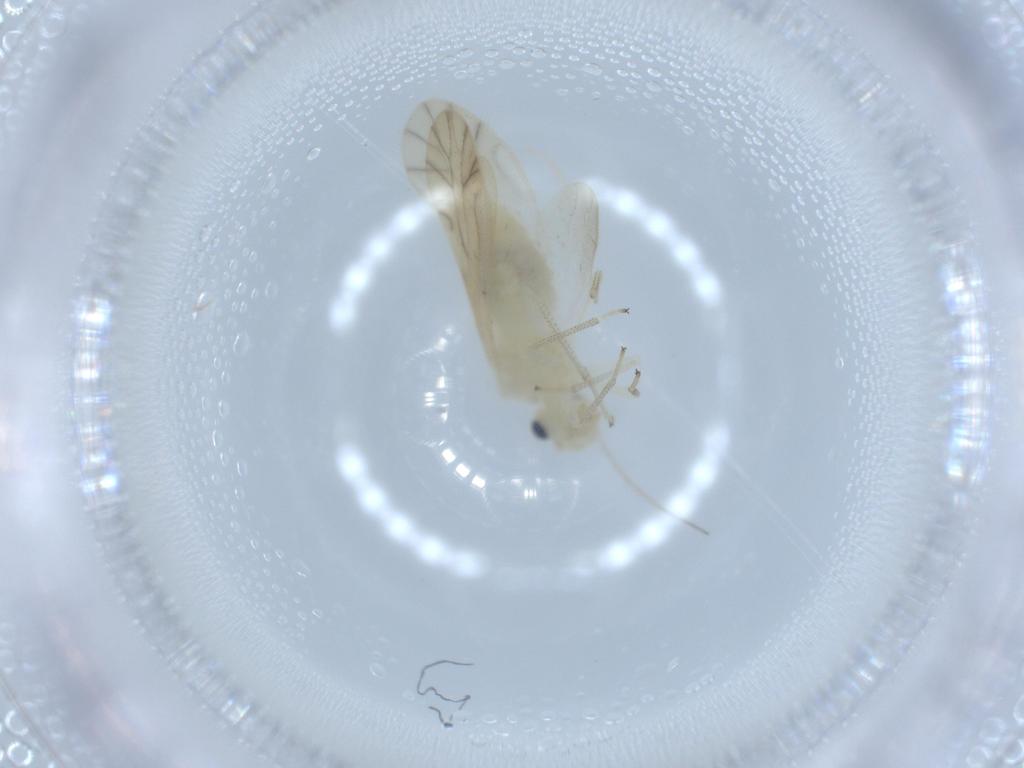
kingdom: Animalia
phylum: Arthropoda
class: Insecta
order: Psocodea
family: Caeciliusidae
